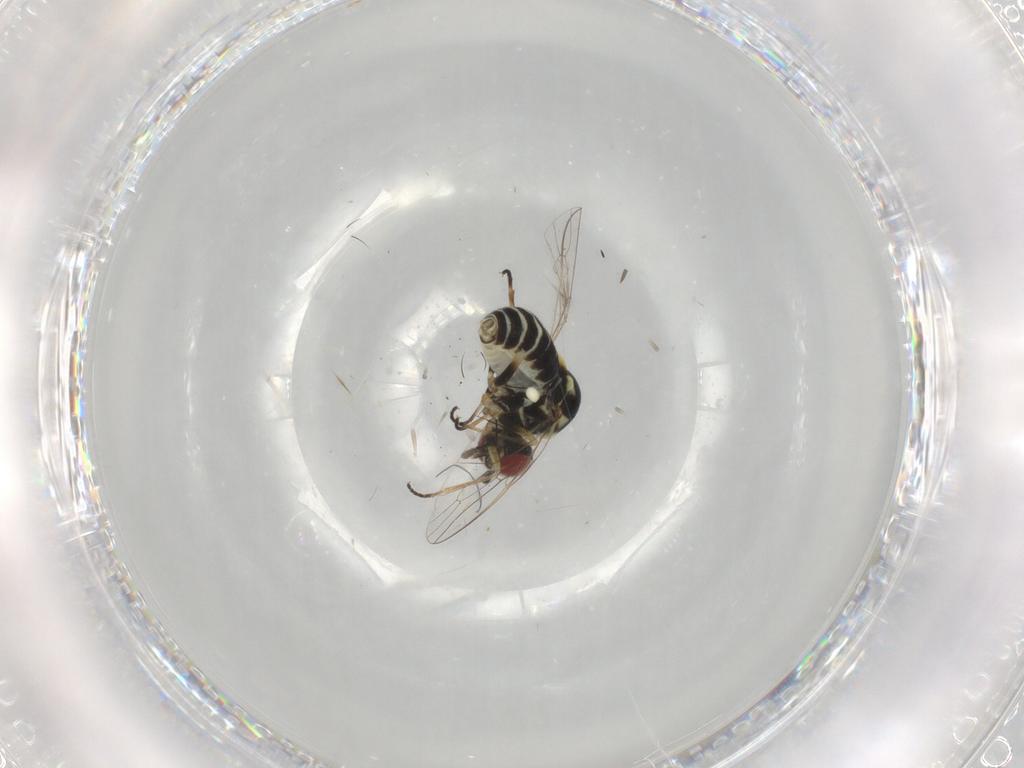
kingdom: Animalia
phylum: Arthropoda
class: Insecta
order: Diptera
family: Bombyliidae
